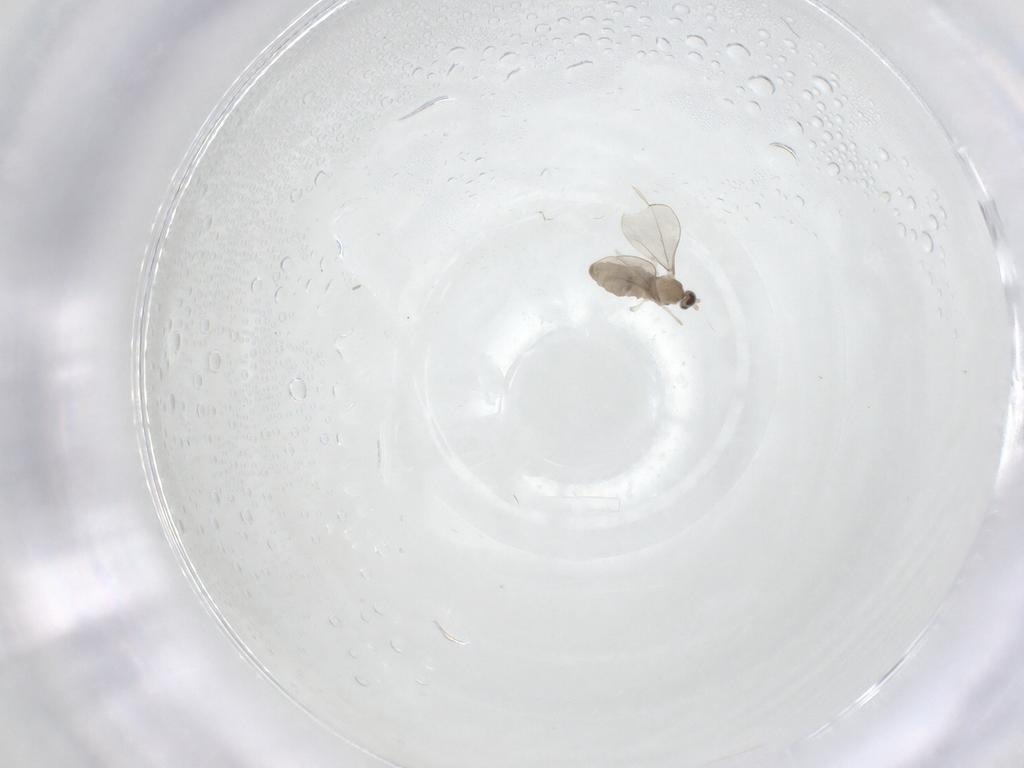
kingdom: Animalia
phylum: Arthropoda
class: Insecta
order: Diptera
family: Cecidomyiidae
